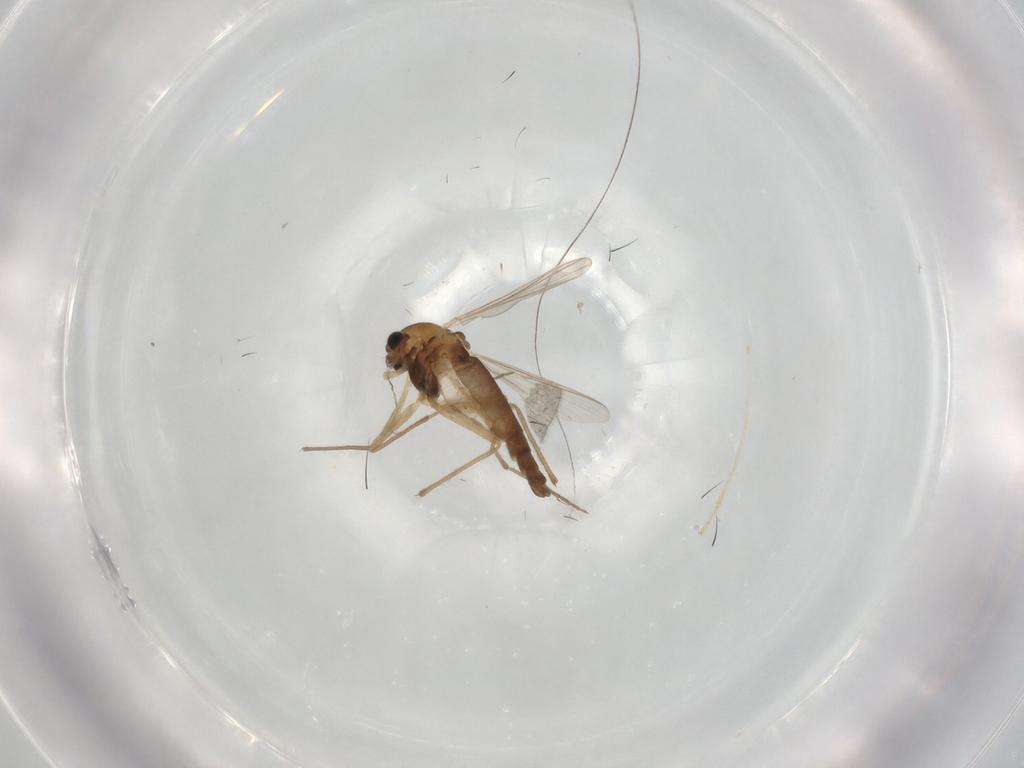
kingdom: Animalia
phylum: Arthropoda
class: Insecta
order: Diptera
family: Chironomidae
